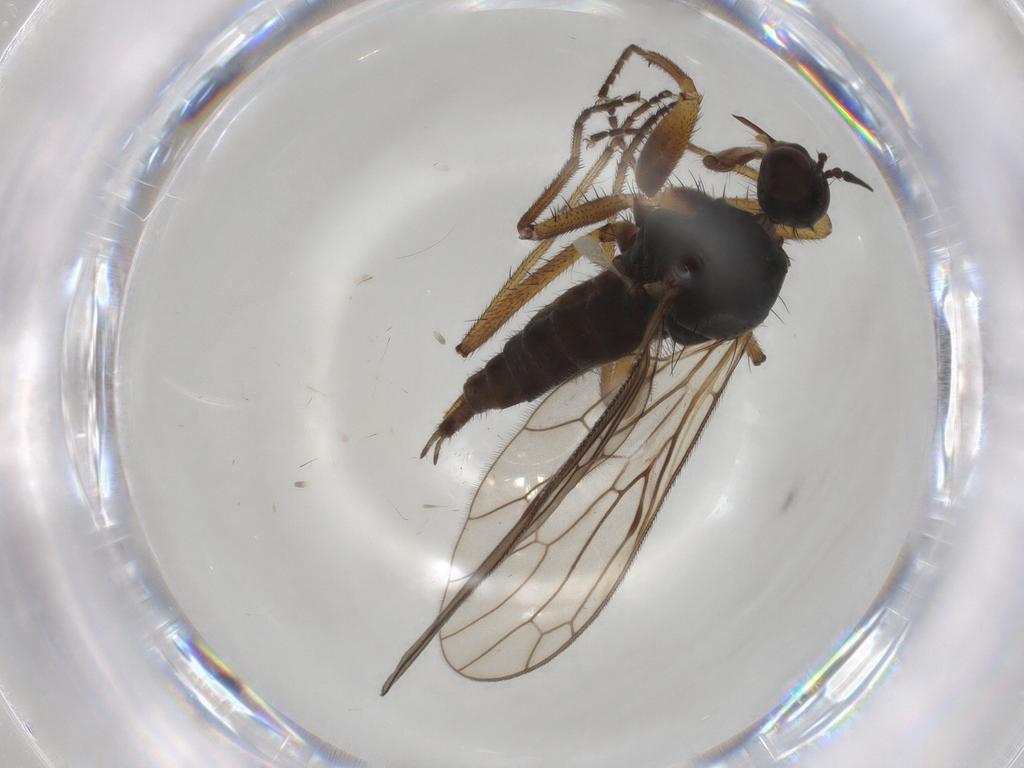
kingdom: Animalia
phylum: Arthropoda
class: Insecta
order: Diptera
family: Empididae
